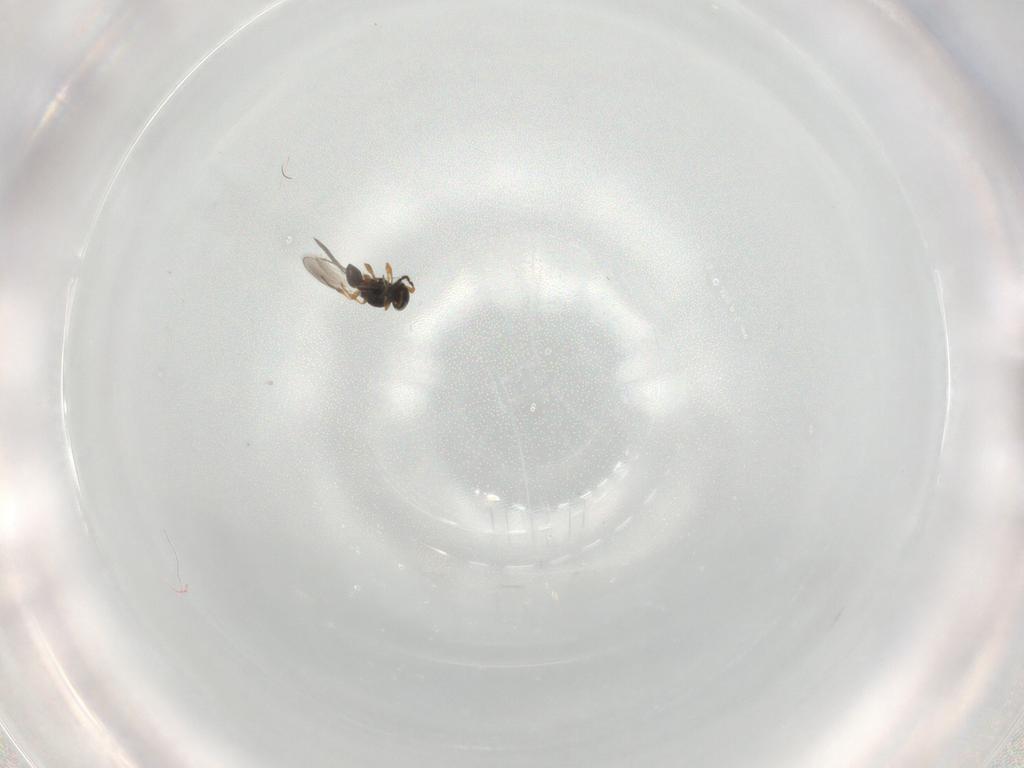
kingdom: Animalia
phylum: Arthropoda
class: Insecta
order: Hymenoptera
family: Platygastridae
